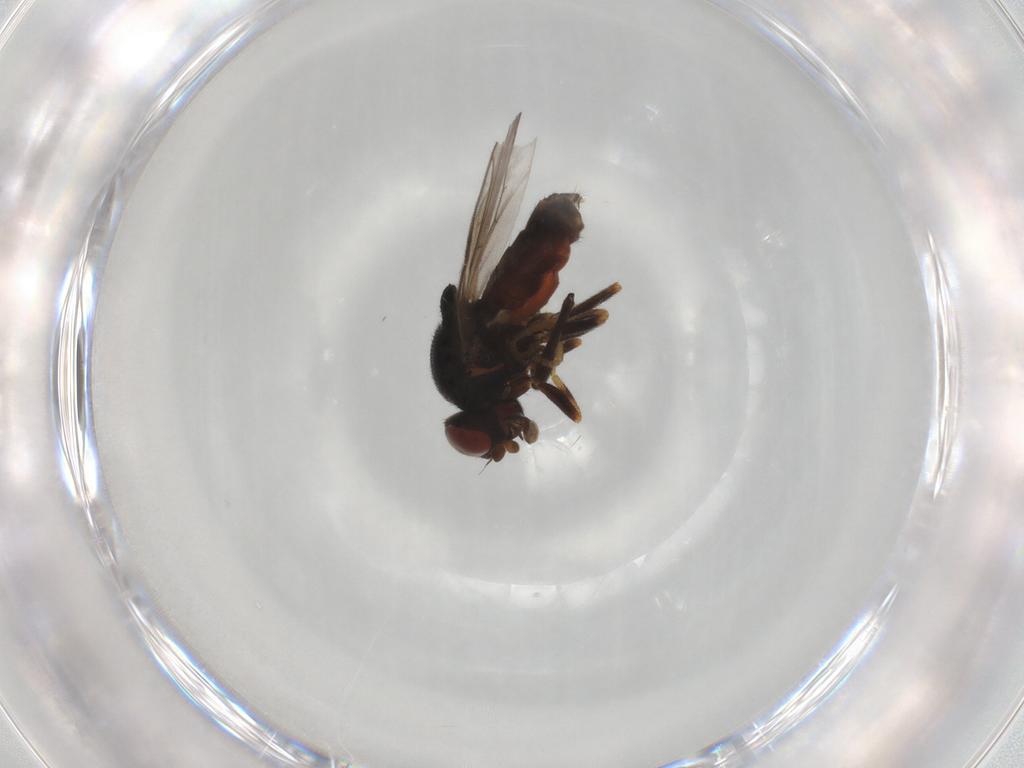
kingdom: Animalia
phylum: Arthropoda
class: Insecta
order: Diptera
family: Chloropidae
